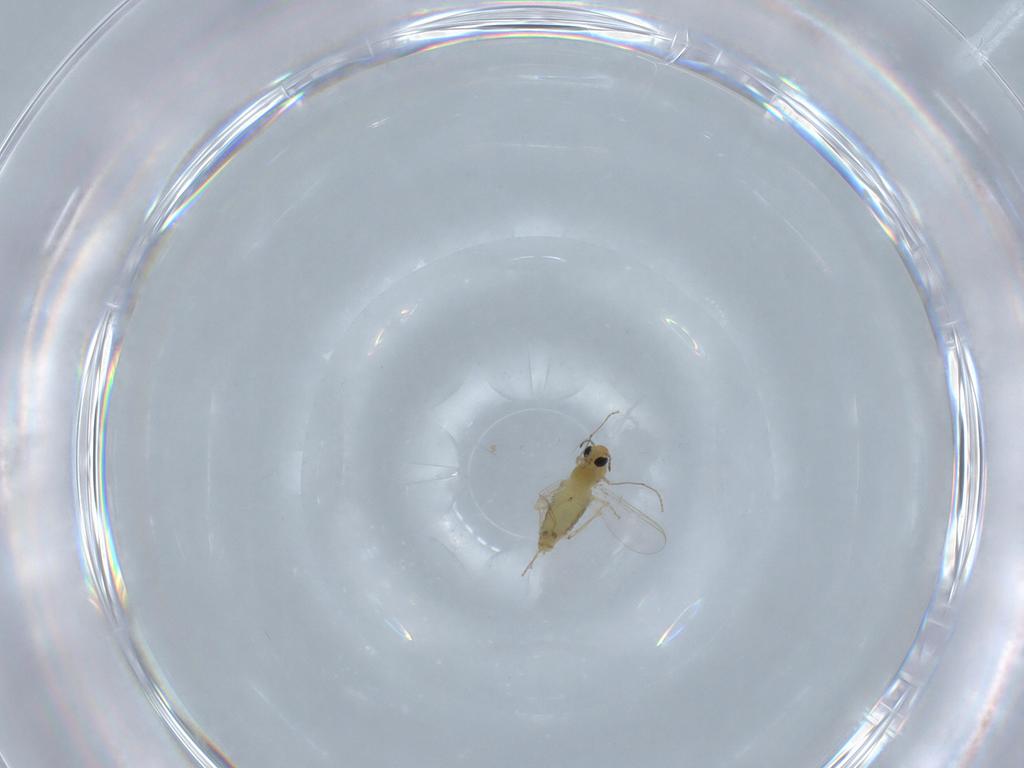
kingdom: Animalia
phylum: Arthropoda
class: Insecta
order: Diptera
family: Chironomidae
